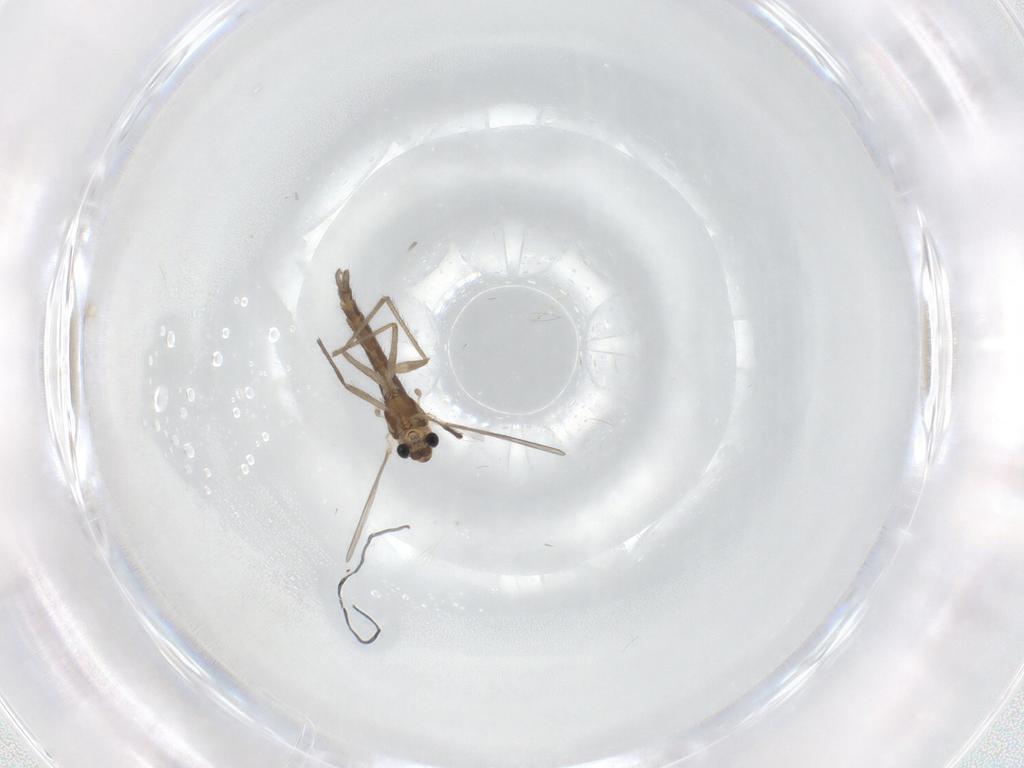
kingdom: Animalia
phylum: Arthropoda
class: Insecta
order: Diptera
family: Chironomidae
